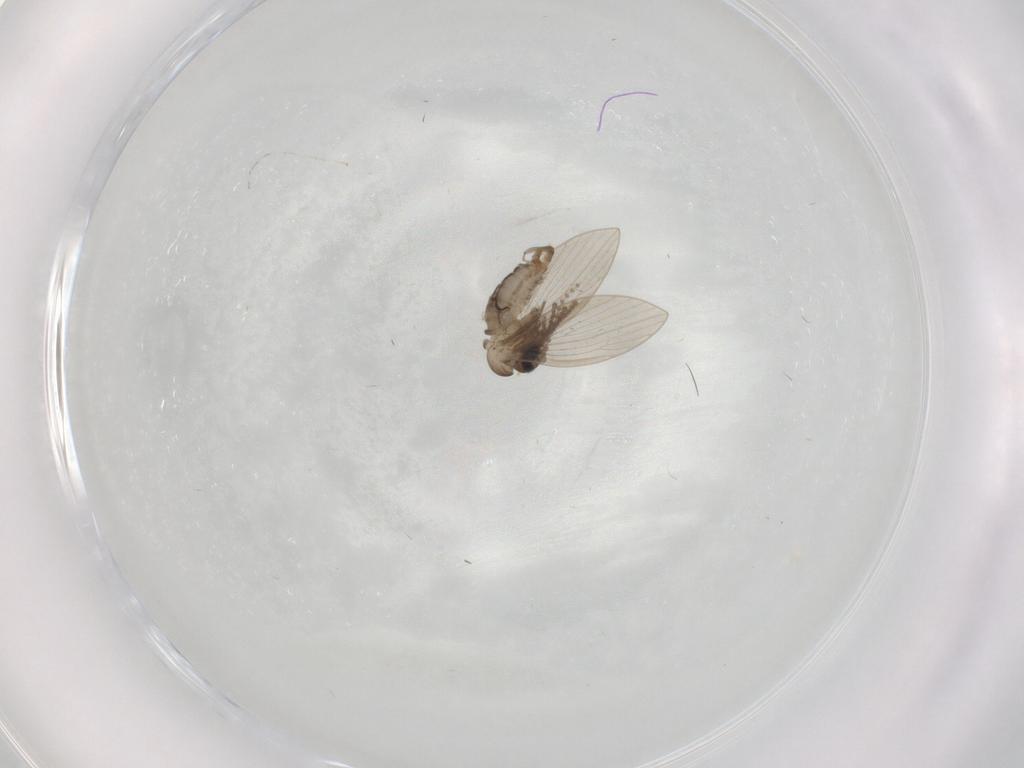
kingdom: Animalia
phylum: Arthropoda
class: Insecta
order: Diptera
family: Psychodidae
